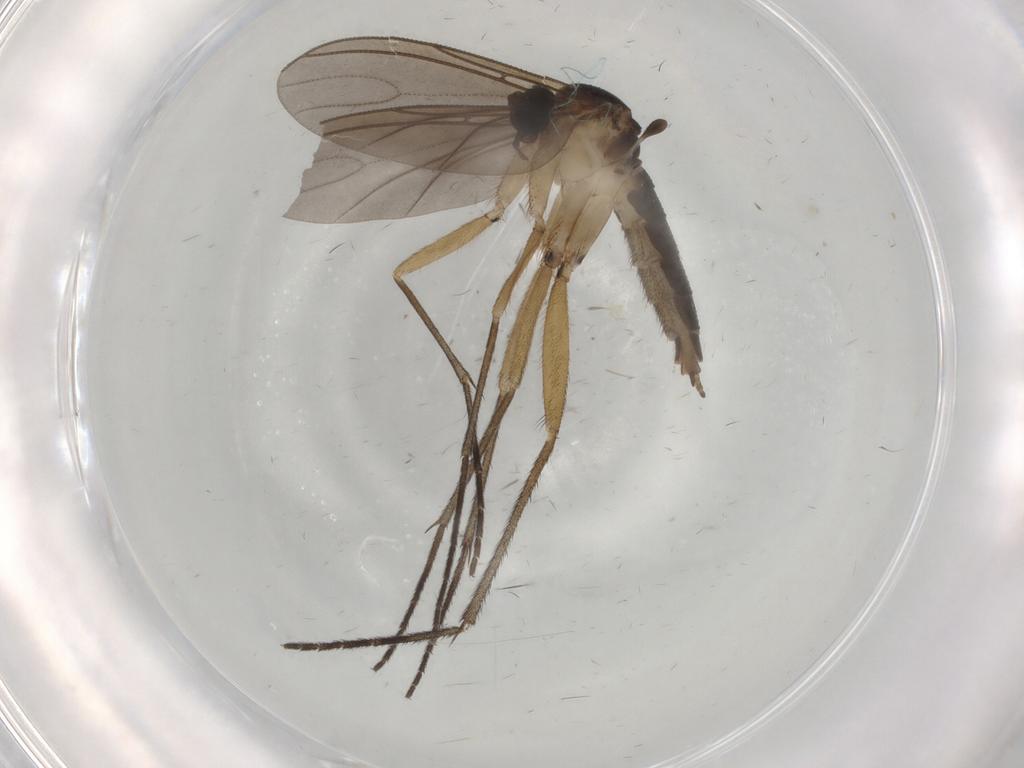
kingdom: Animalia
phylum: Arthropoda
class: Insecta
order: Diptera
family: Sciaridae
